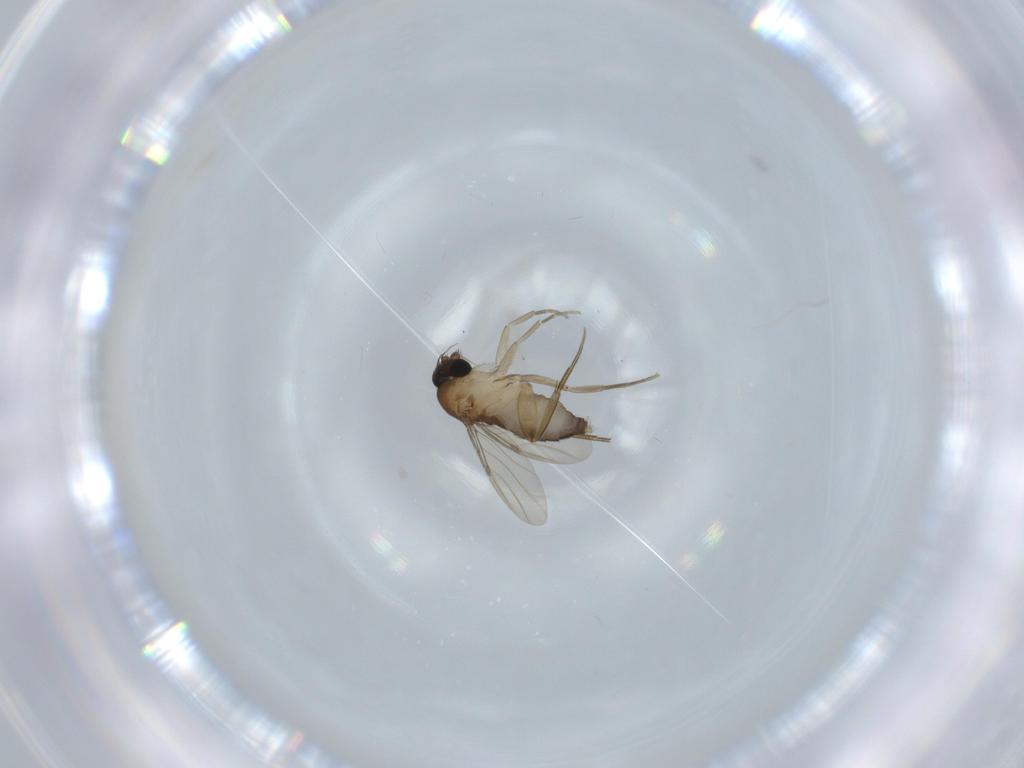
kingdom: Animalia
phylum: Arthropoda
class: Insecta
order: Diptera
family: Phoridae
